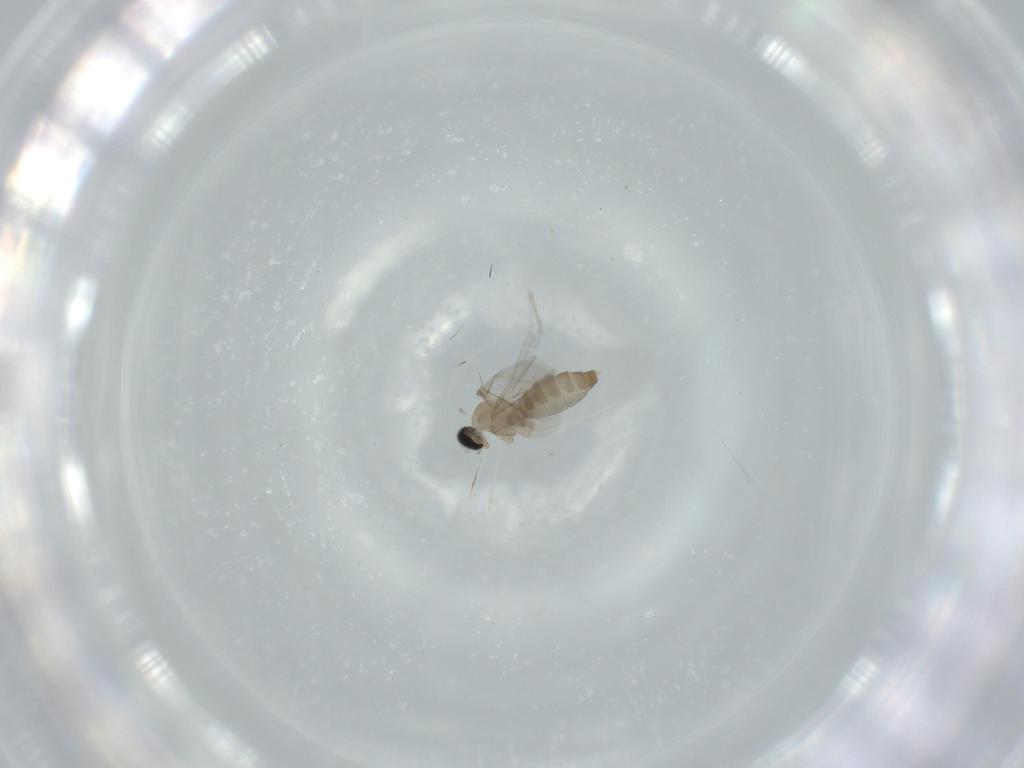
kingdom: Animalia
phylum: Arthropoda
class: Insecta
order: Diptera
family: Cecidomyiidae
